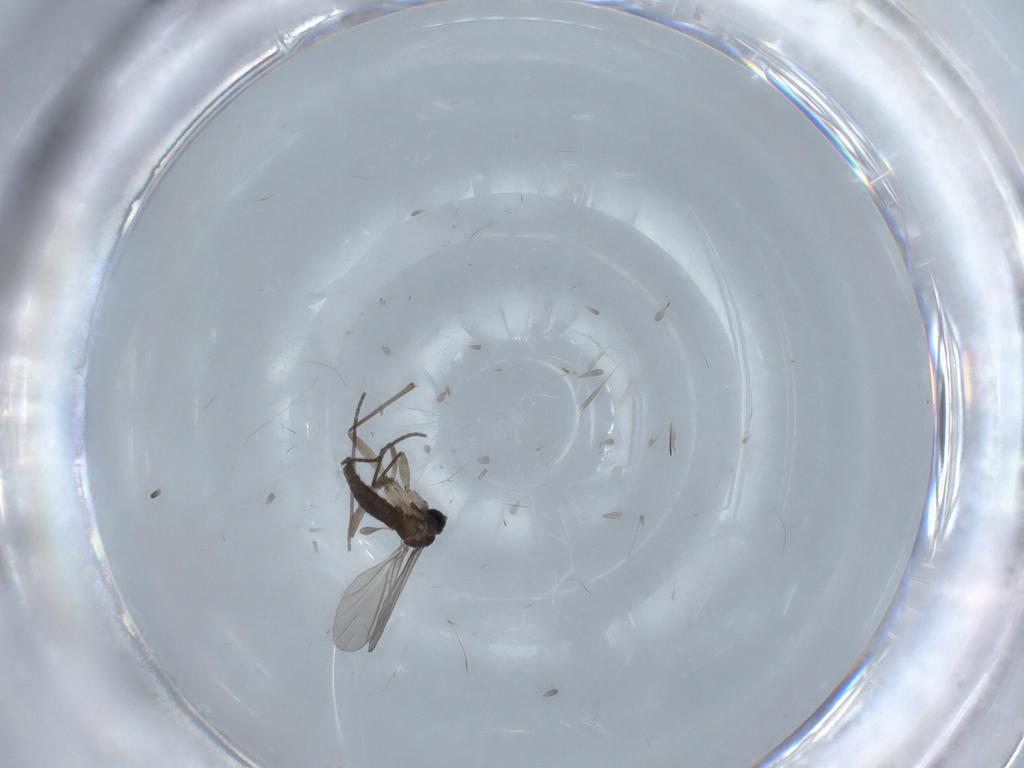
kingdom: Animalia
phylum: Arthropoda
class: Insecta
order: Diptera
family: Sciaridae
